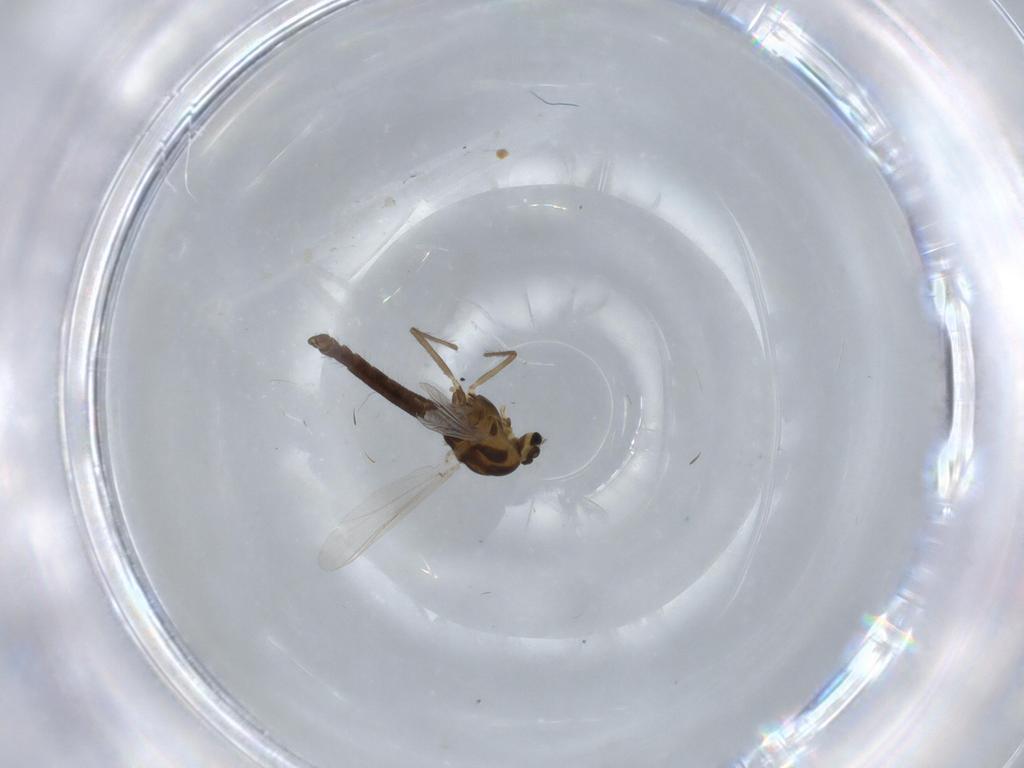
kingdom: Animalia
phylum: Arthropoda
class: Insecta
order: Diptera
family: Chironomidae
